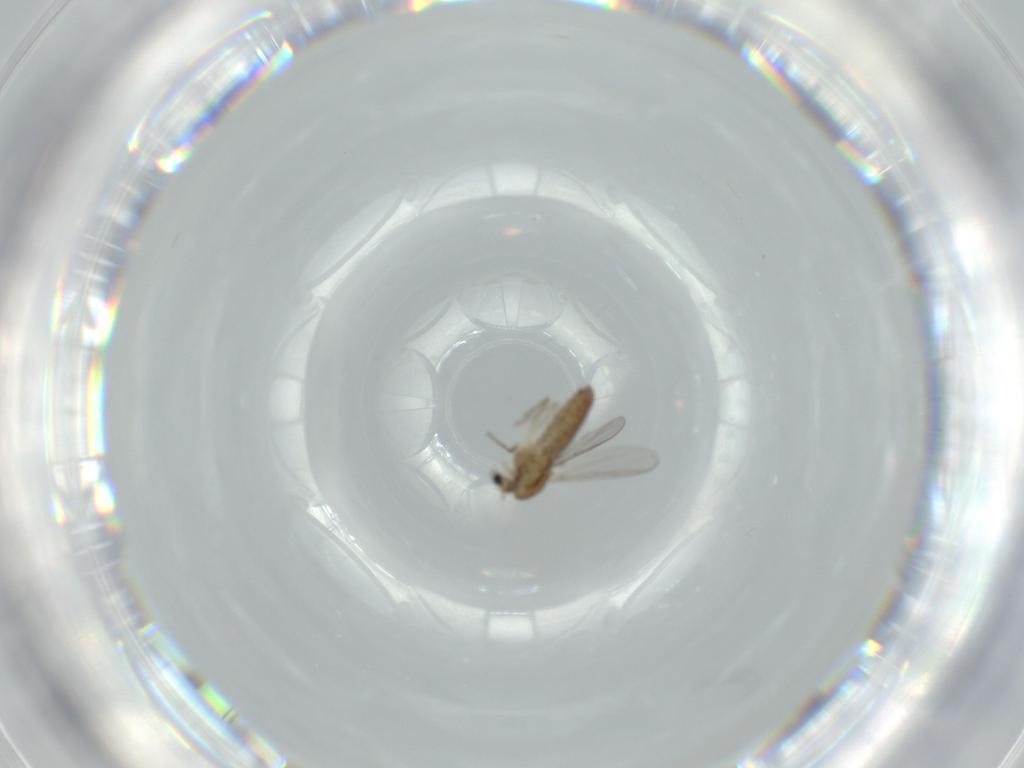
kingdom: Animalia
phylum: Arthropoda
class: Insecta
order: Diptera
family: Chironomidae
